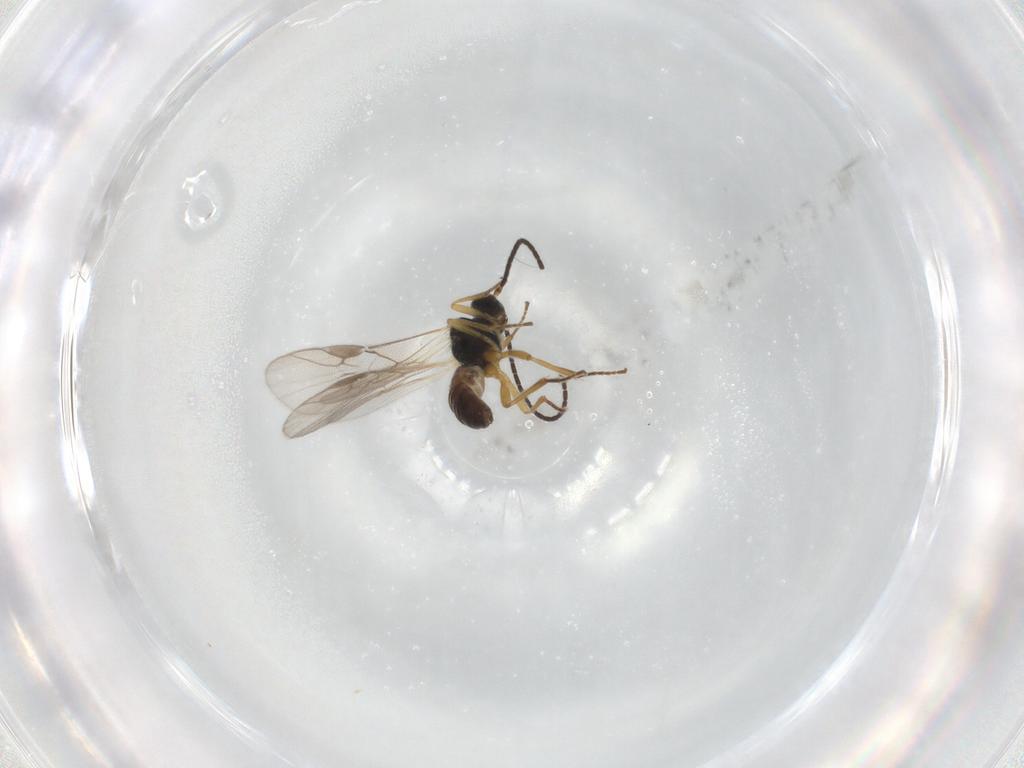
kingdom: Animalia
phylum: Arthropoda
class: Insecta
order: Hymenoptera
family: Braconidae
